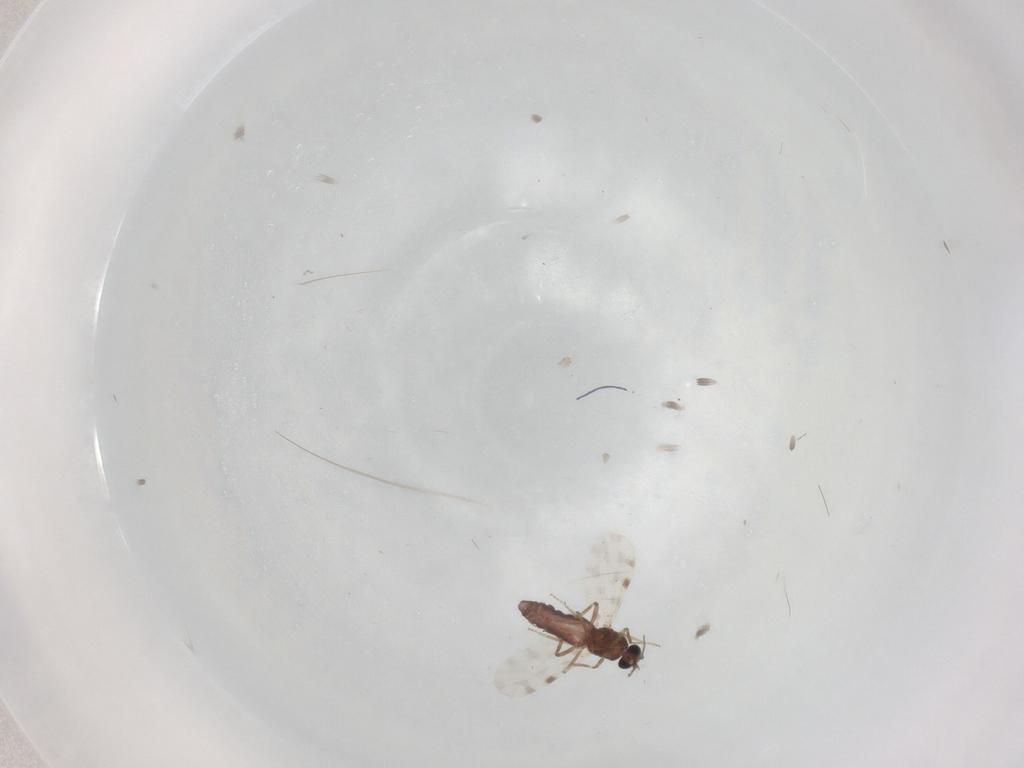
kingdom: Animalia
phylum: Arthropoda
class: Insecta
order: Diptera
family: Ceratopogonidae
